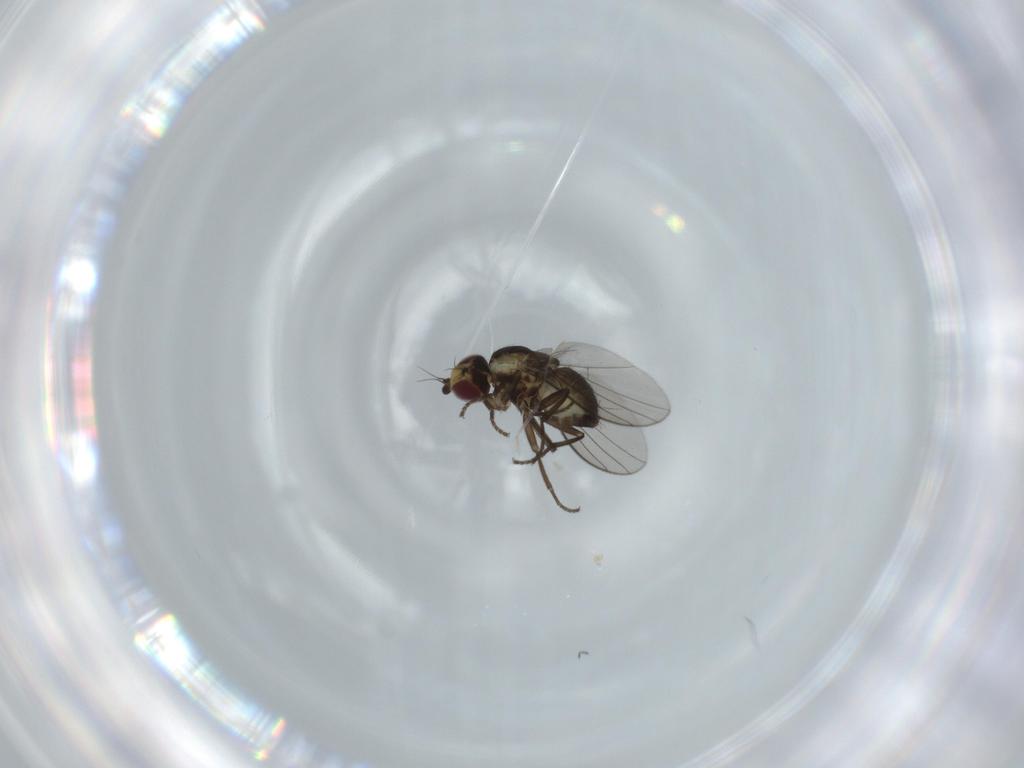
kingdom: Animalia
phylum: Arthropoda
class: Insecta
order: Diptera
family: Agromyzidae
